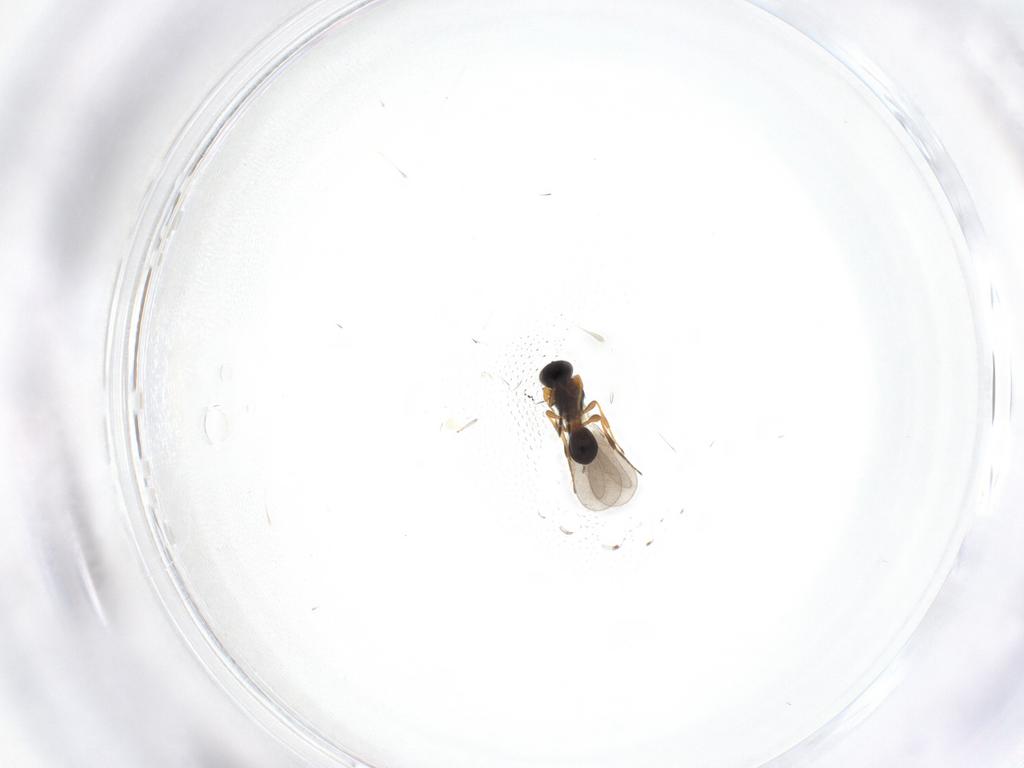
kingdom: Animalia
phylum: Arthropoda
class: Insecta
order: Hymenoptera
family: Platygastridae
